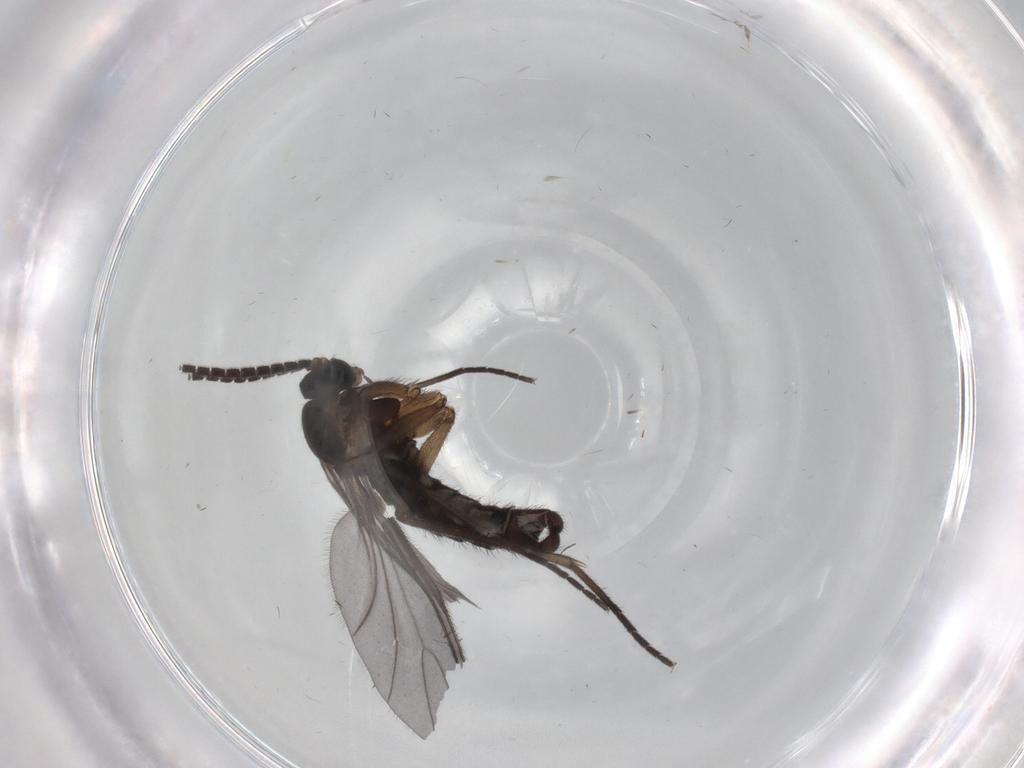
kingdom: Animalia
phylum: Arthropoda
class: Insecta
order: Diptera
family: Sciaridae
